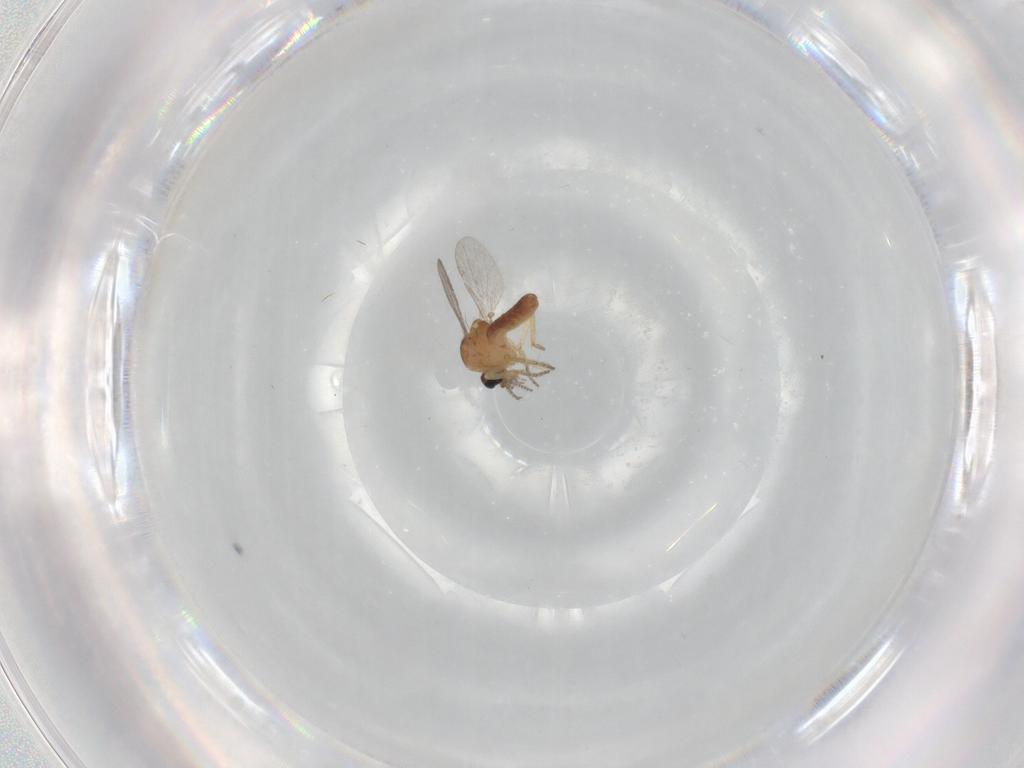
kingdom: Animalia
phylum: Arthropoda
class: Insecta
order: Diptera
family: Ceratopogonidae
